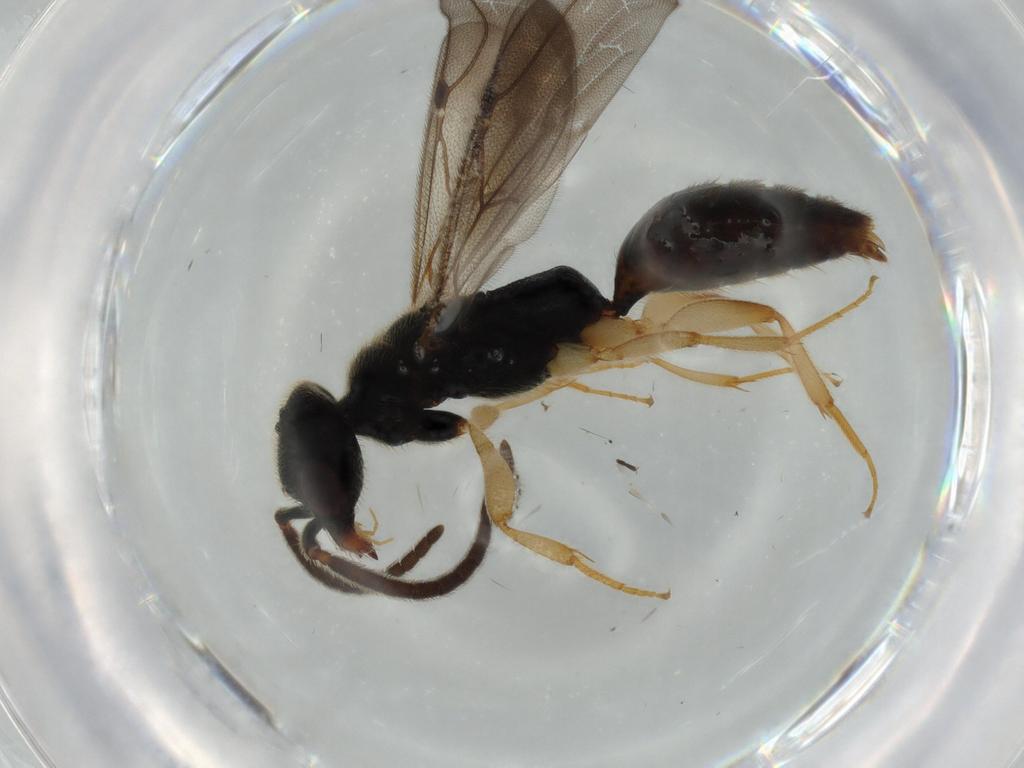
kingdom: Animalia
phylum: Arthropoda
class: Insecta
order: Hymenoptera
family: Bethylidae
